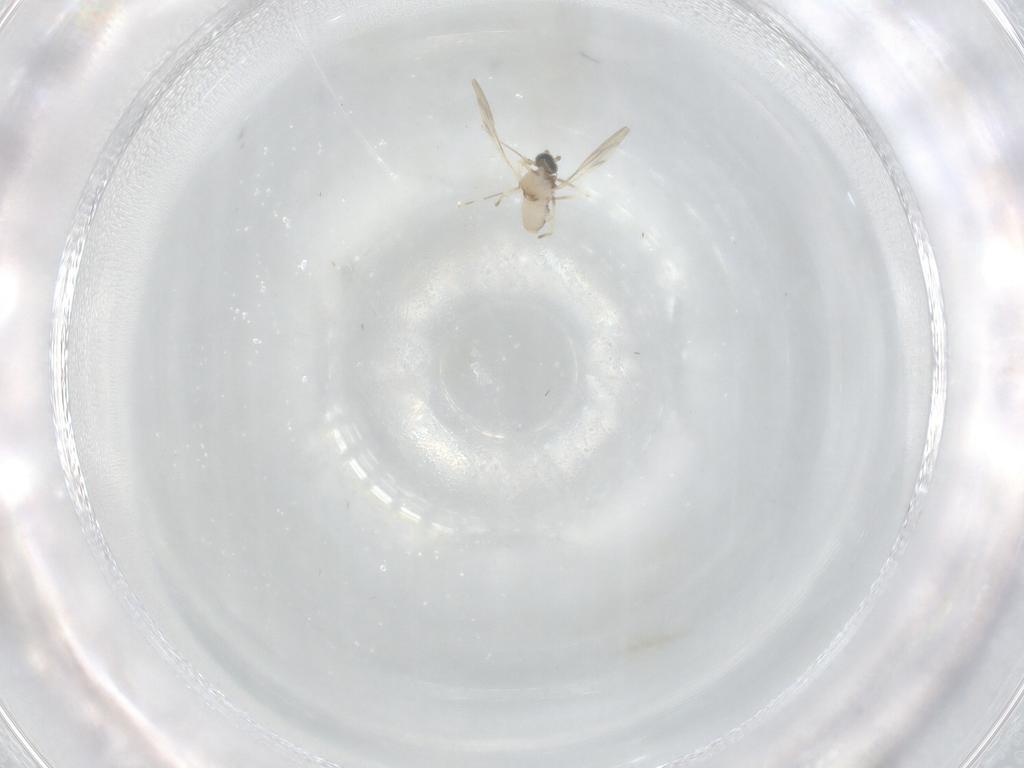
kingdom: Animalia
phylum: Arthropoda
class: Insecta
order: Diptera
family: Cecidomyiidae
